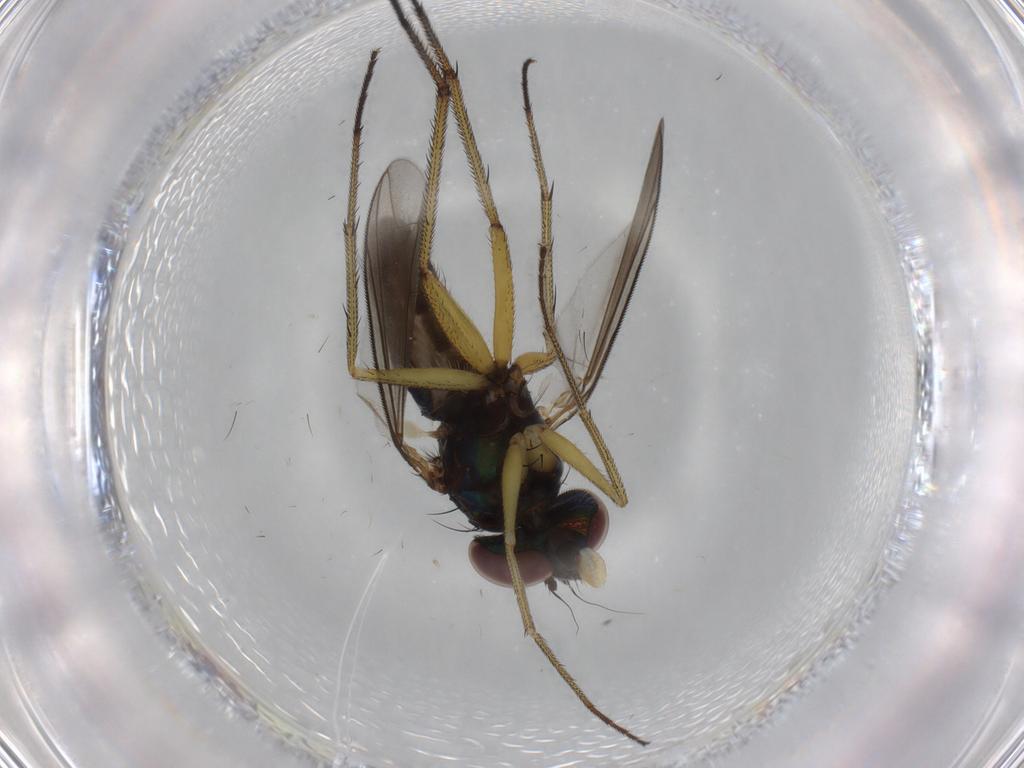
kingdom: Animalia
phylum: Arthropoda
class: Insecta
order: Diptera
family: Dolichopodidae
